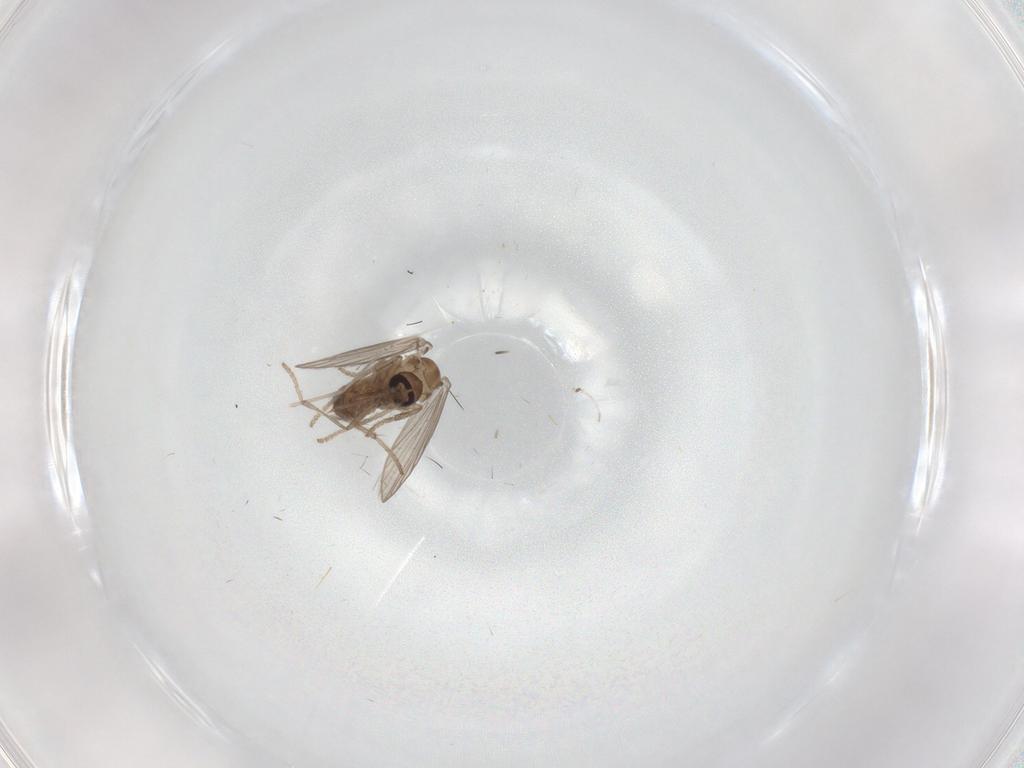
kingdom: Animalia
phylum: Arthropoda
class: Insecta
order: Diptera
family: Psychodidae
